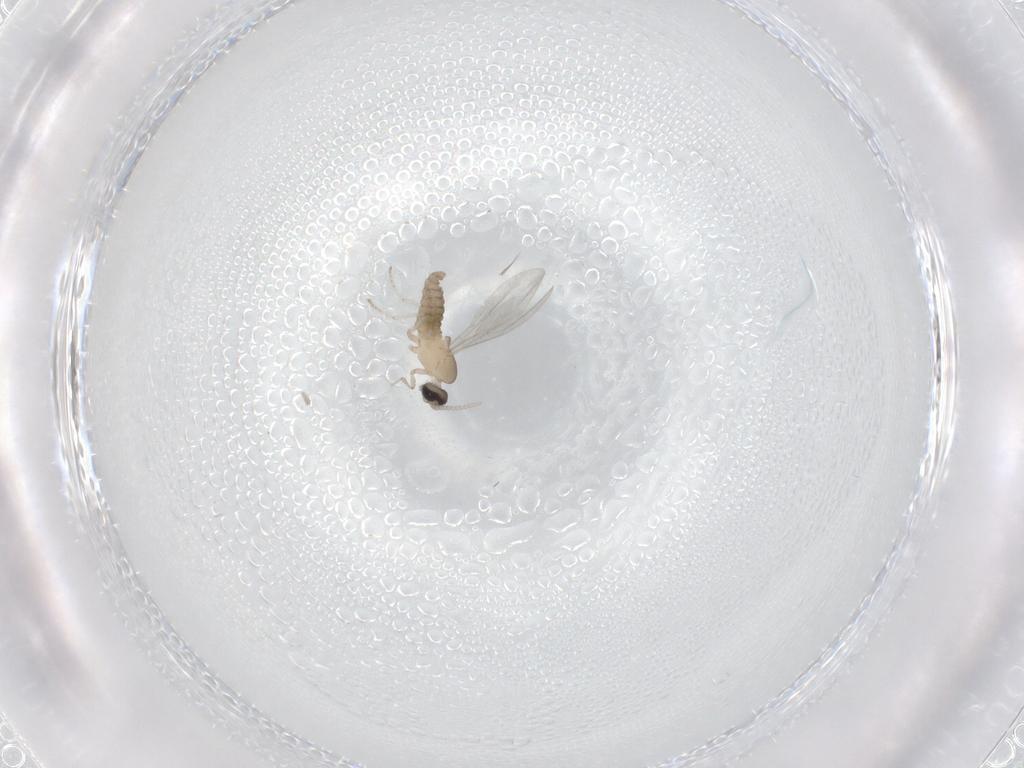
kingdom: Animalia
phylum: Arthropoda
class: Insecta
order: Diptera
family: Cecidomyiidae
